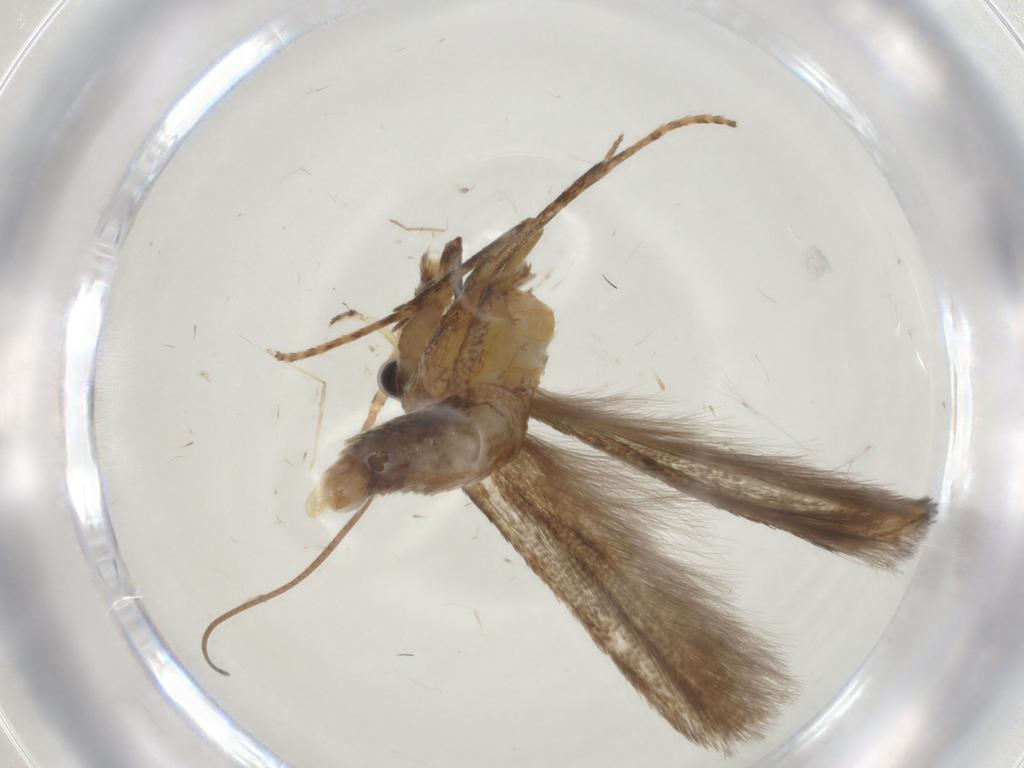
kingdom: Animalia
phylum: Arthropoda
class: Insecta
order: Lepidoptera
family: Batrachedridae
